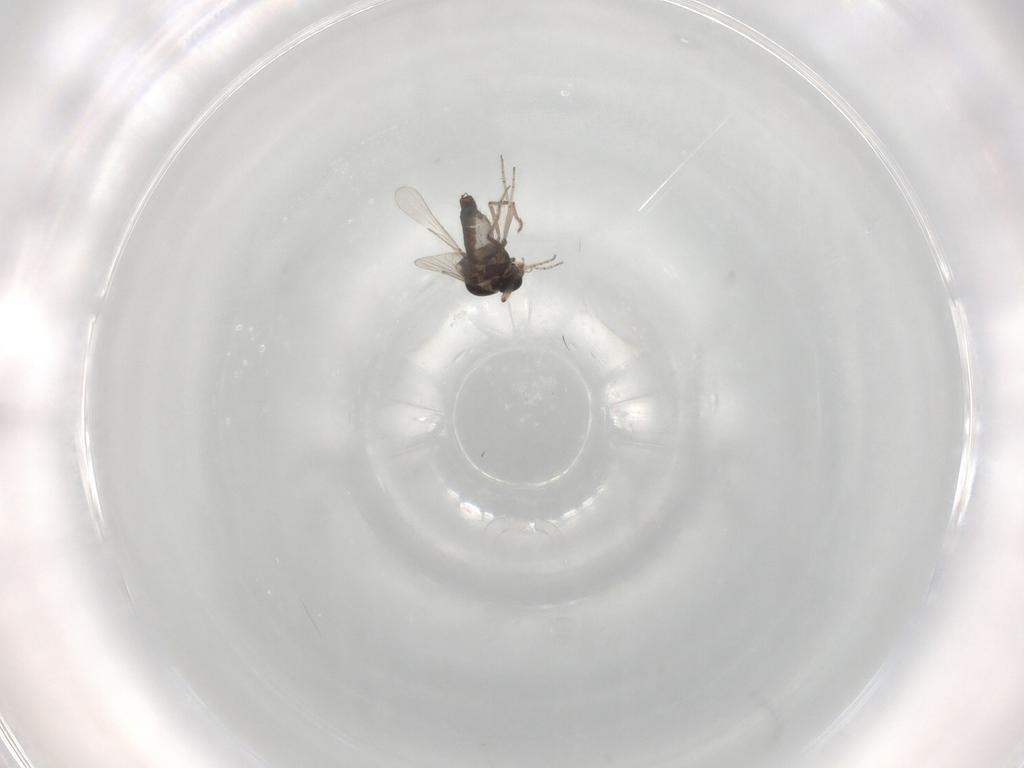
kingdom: Animalia
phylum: Arthropoda
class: Insecta
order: Diptera
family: Ceratopogonidae
